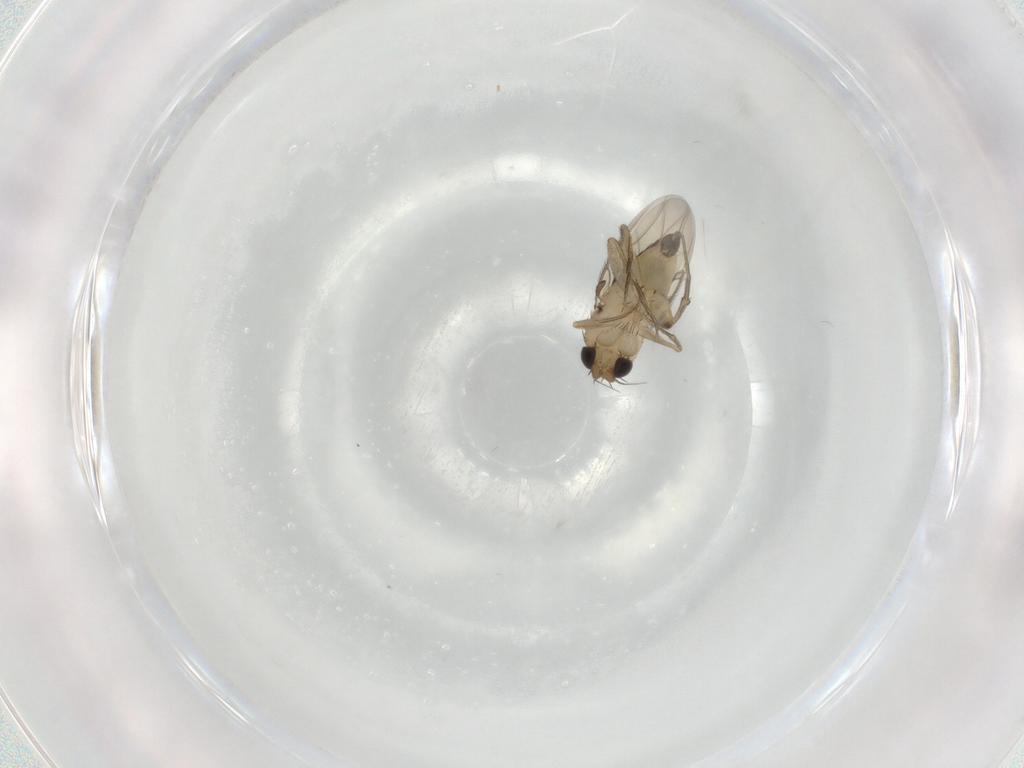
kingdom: Animalia
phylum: Arthropoda
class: Insecta
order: Diptera
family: Phoridae
